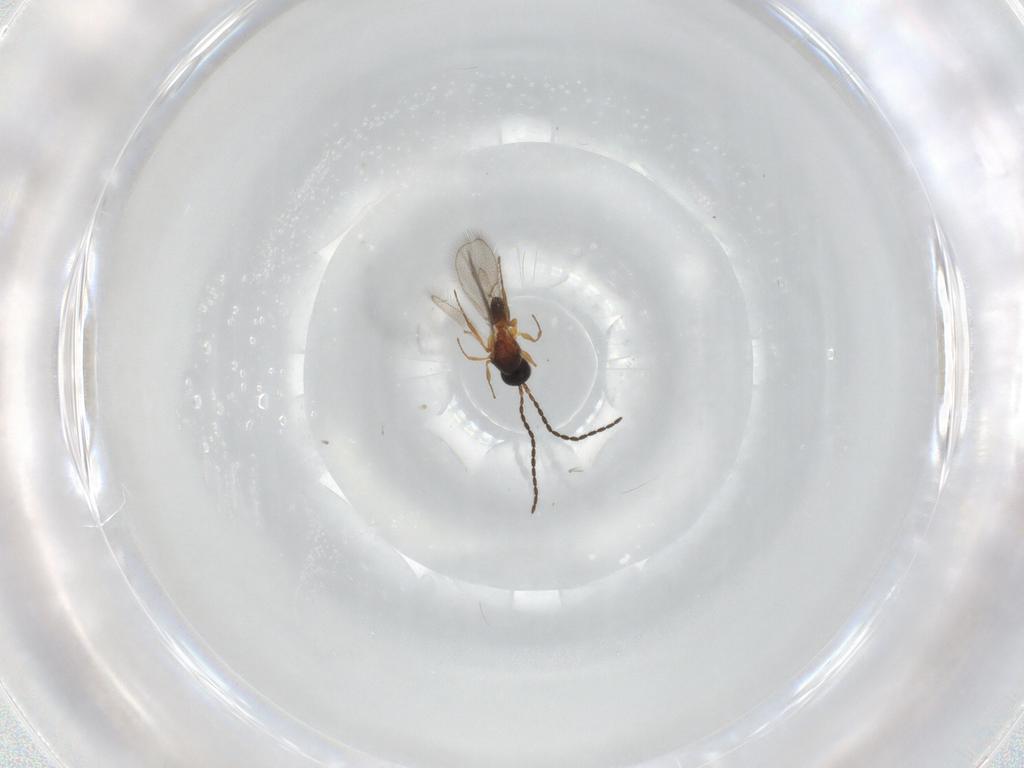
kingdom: Animalia
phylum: Arthropoda
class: Insecta
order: Hymenoptera
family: Figitidae
